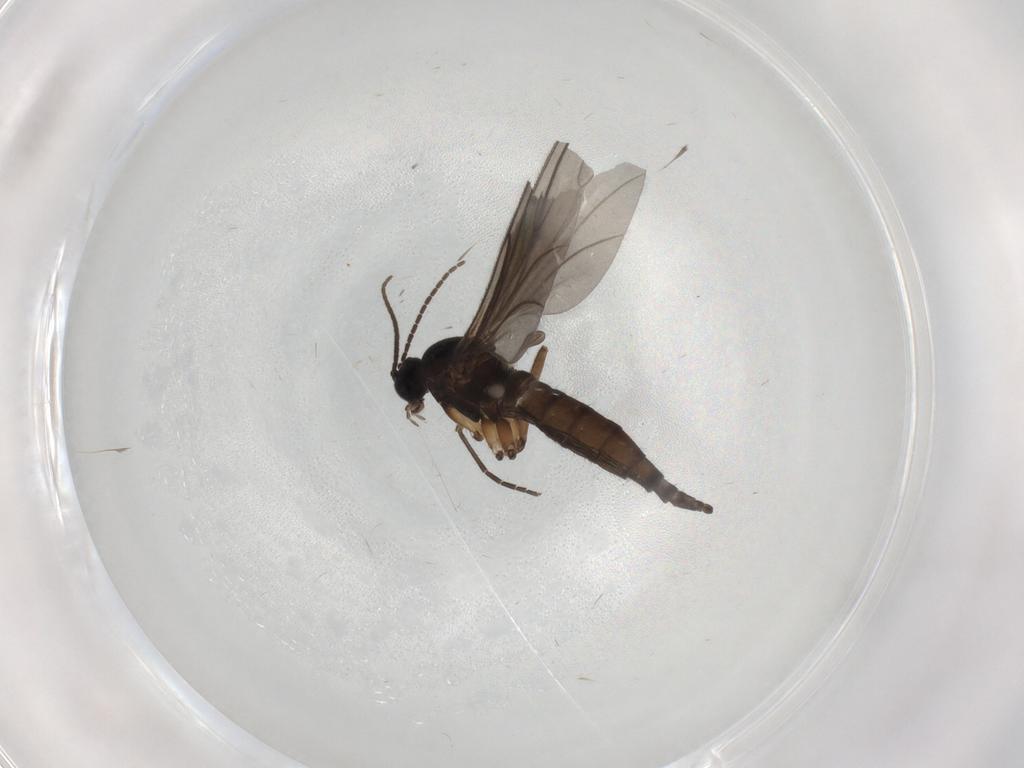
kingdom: Animalia
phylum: Arthropoda
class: Insecta
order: Diptera
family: Sciaridae
